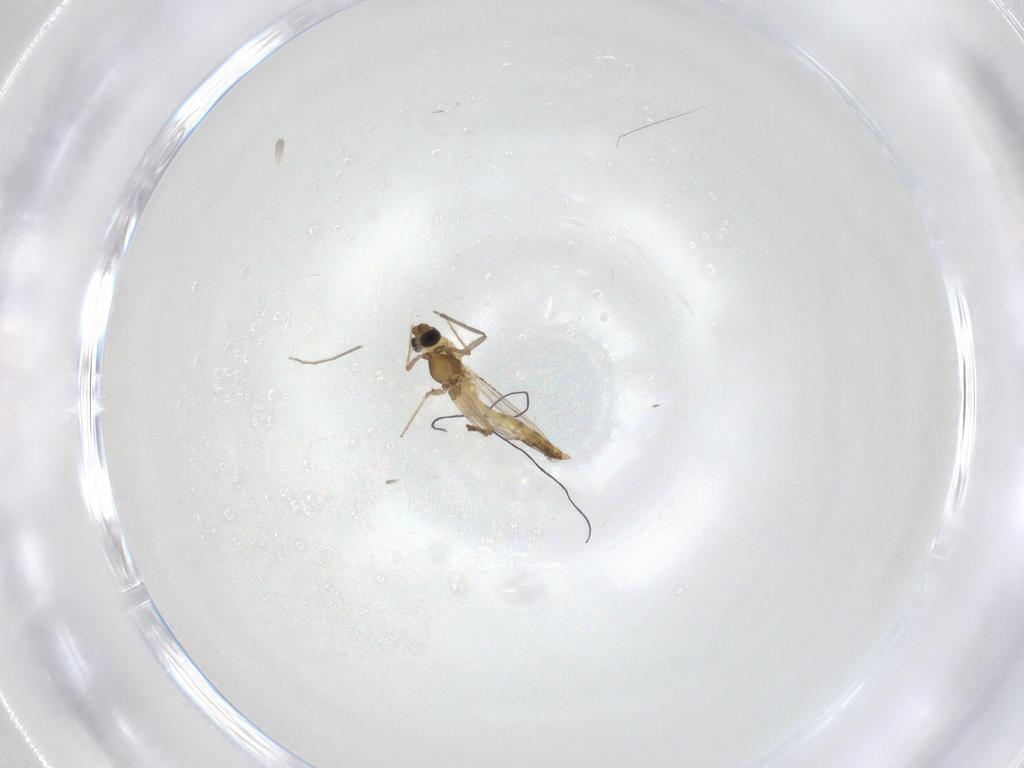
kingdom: Animalia
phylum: Arthropoda
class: Insecta
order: Diptera
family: Chironomidae
